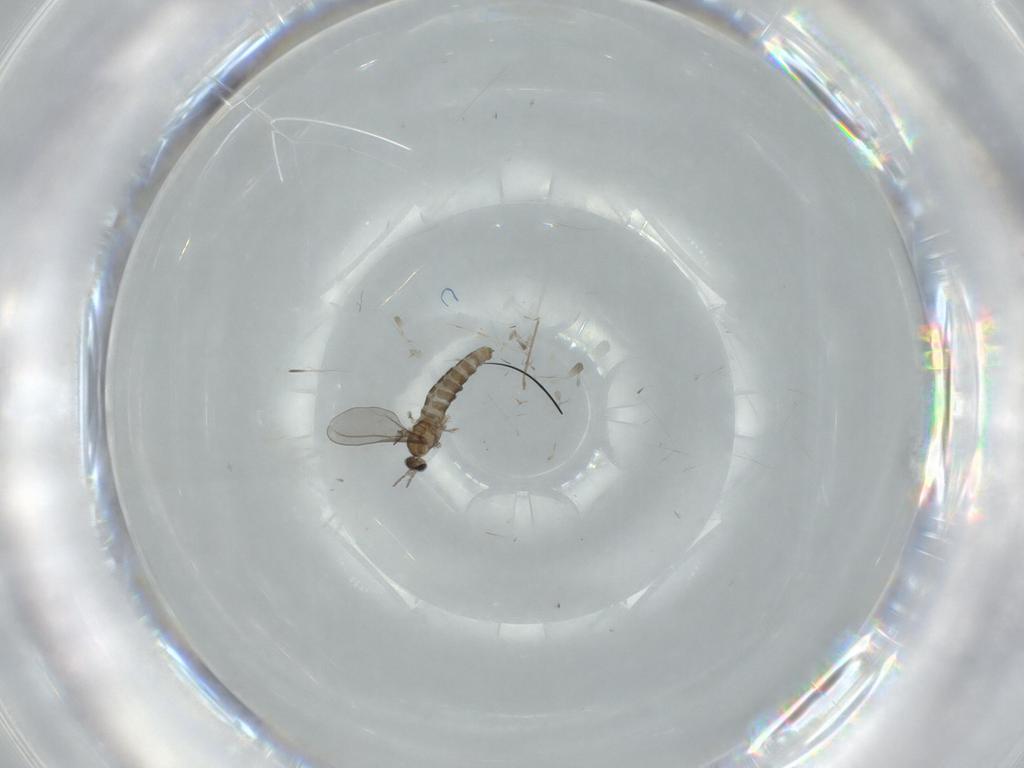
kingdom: Animalia
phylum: Arthropoda
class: Insecta
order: Diptera
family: Cecidomyiidae
